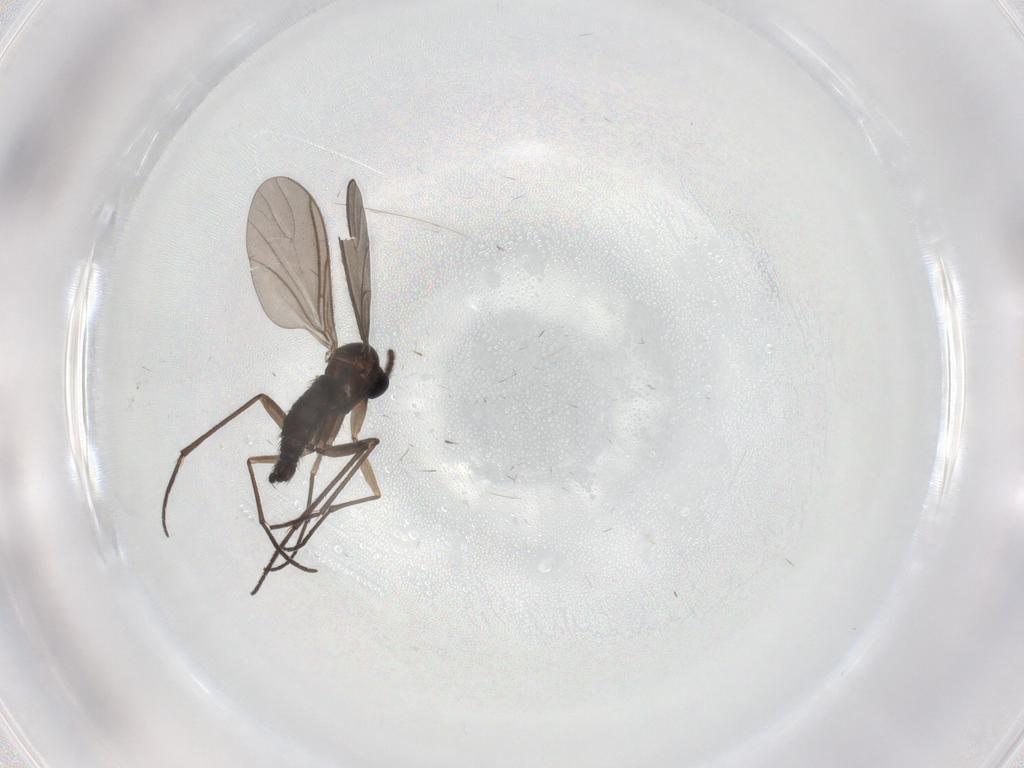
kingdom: Animalia
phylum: Arthropoda
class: Insecta
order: Diptera
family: Sciaridae
